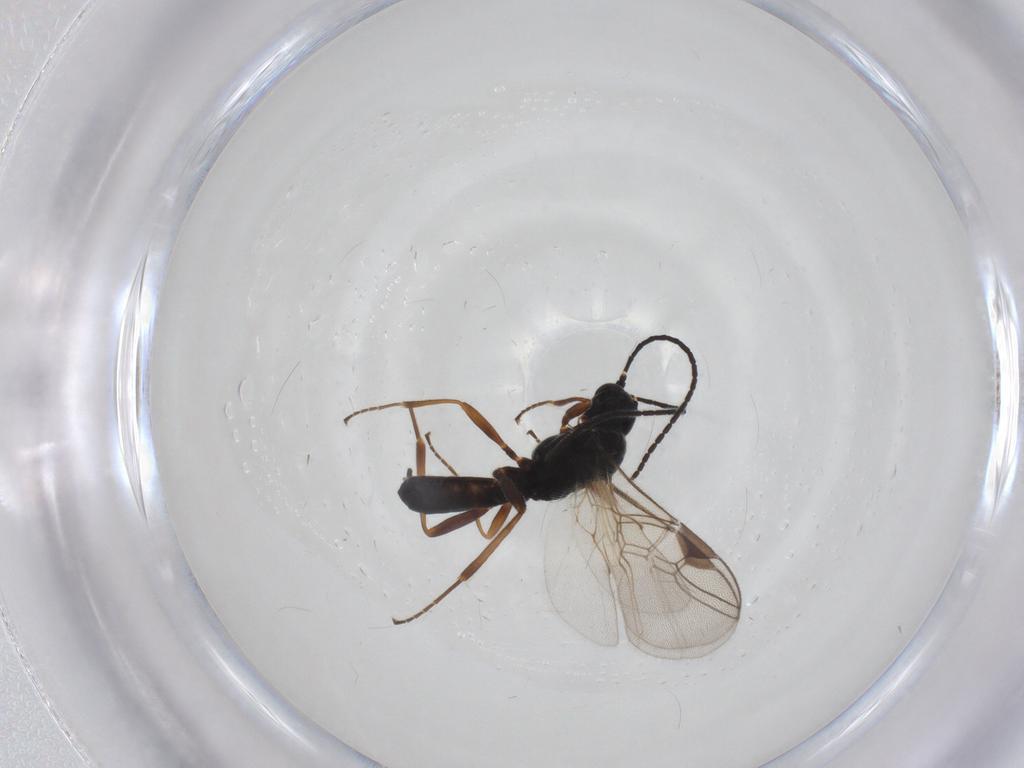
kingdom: Animalia
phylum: Arthropoda
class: Insecta
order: Hymenoptera
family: Braconidae
